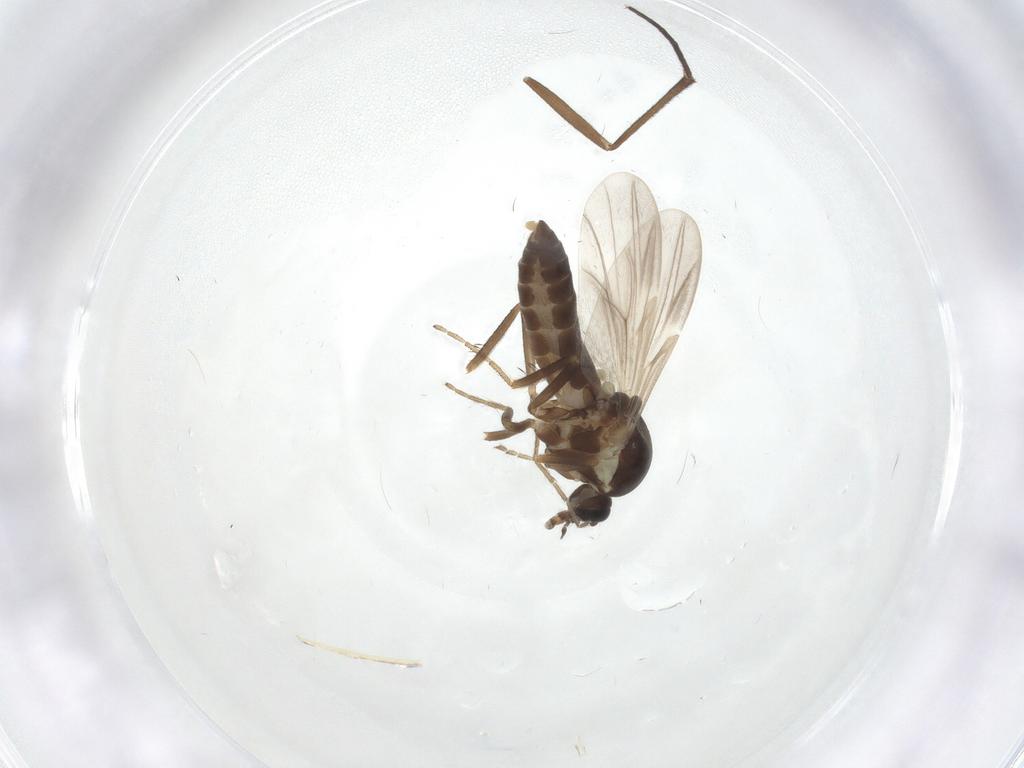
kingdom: Animalia
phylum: Arthropoda
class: Insecta
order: Diptera
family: Ceratopogonidae
